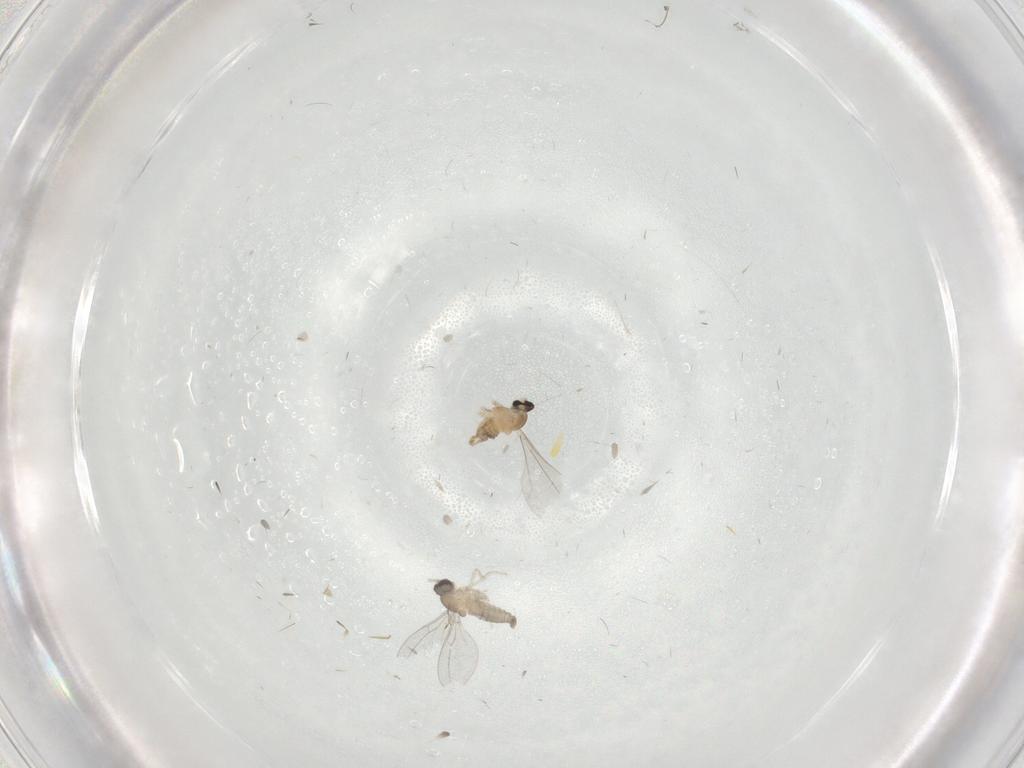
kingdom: Animalia
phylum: Arthropoda
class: Insecta
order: Diptera
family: Cecidomyiidae
